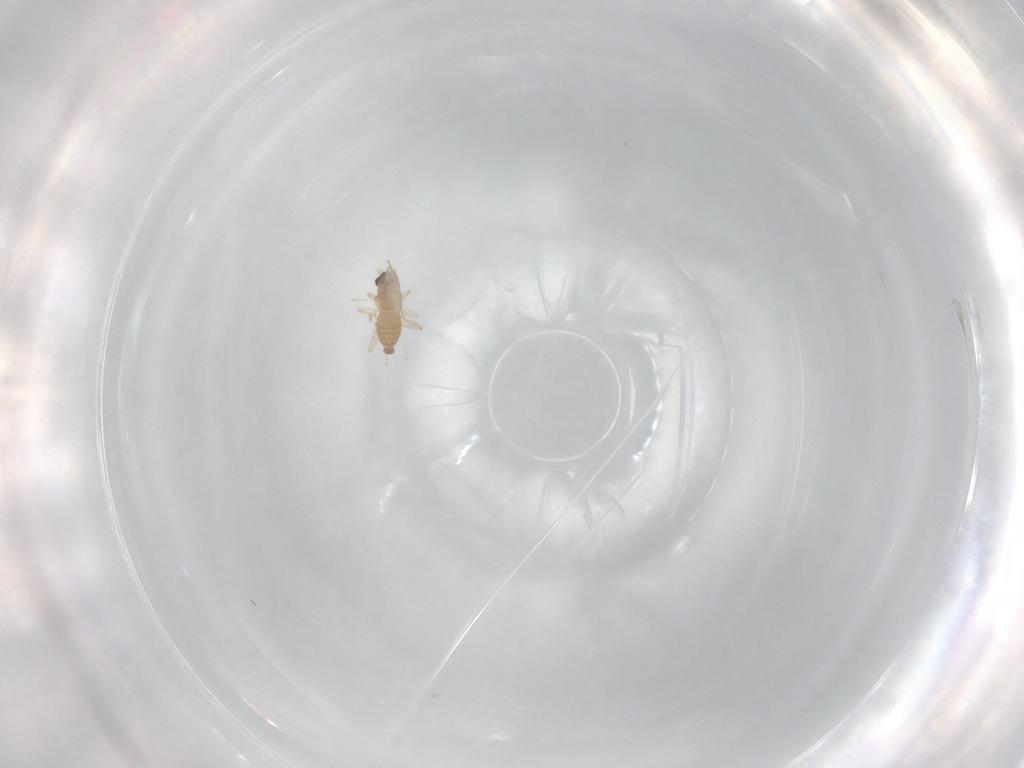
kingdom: Animalia
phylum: Arthropoda
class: Insecta
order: Diptera
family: Cecidomyiidae
